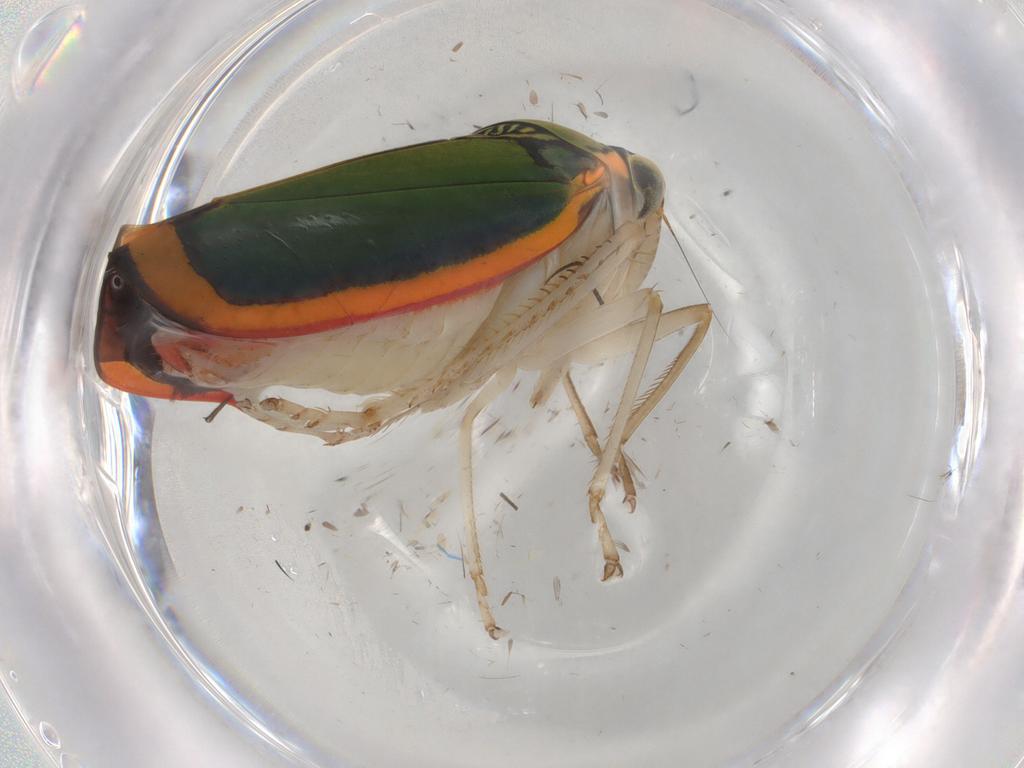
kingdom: Animalia
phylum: Arthropoda
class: Insecta
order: Hemiptera
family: Cicadellidae
